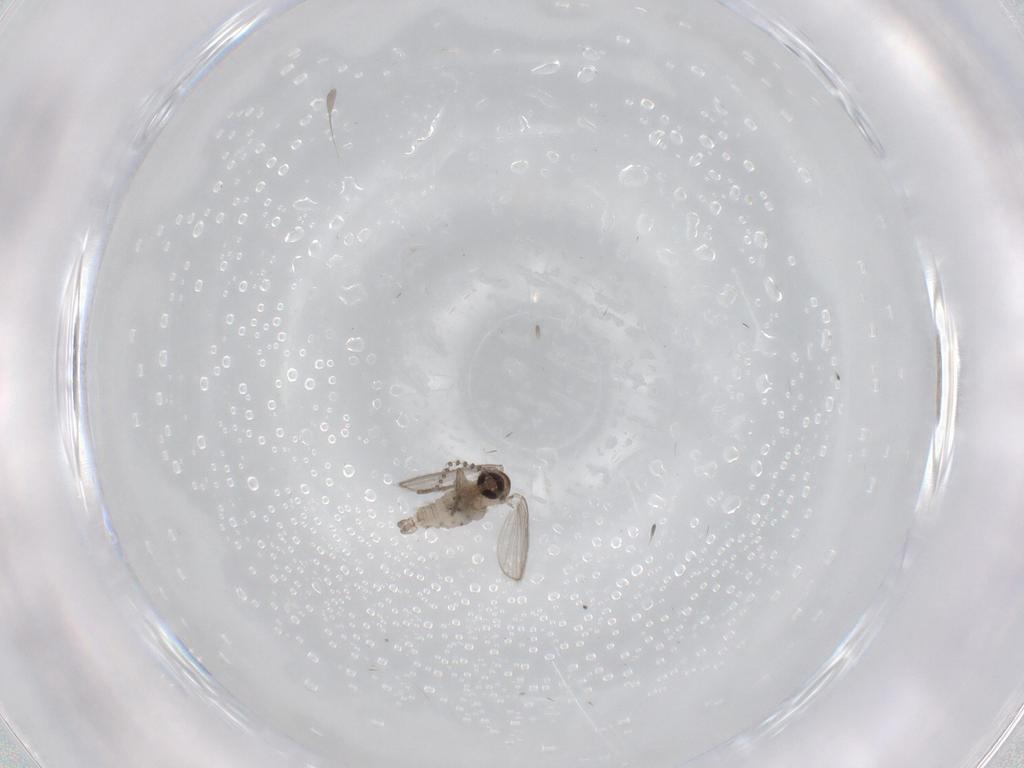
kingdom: Animalia
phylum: Arthropoda
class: Insecta
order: Diptera
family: Psychodidae
